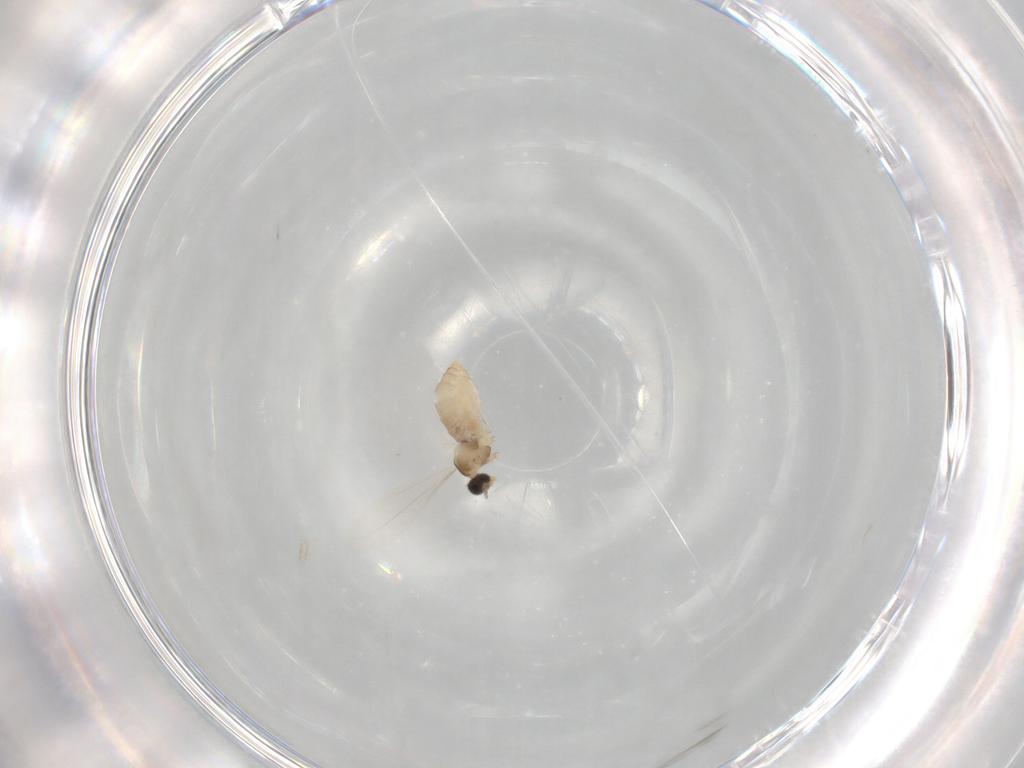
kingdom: Animalia
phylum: Arthropoda
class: Insecta
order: Diptera
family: Cecidomyiidae
